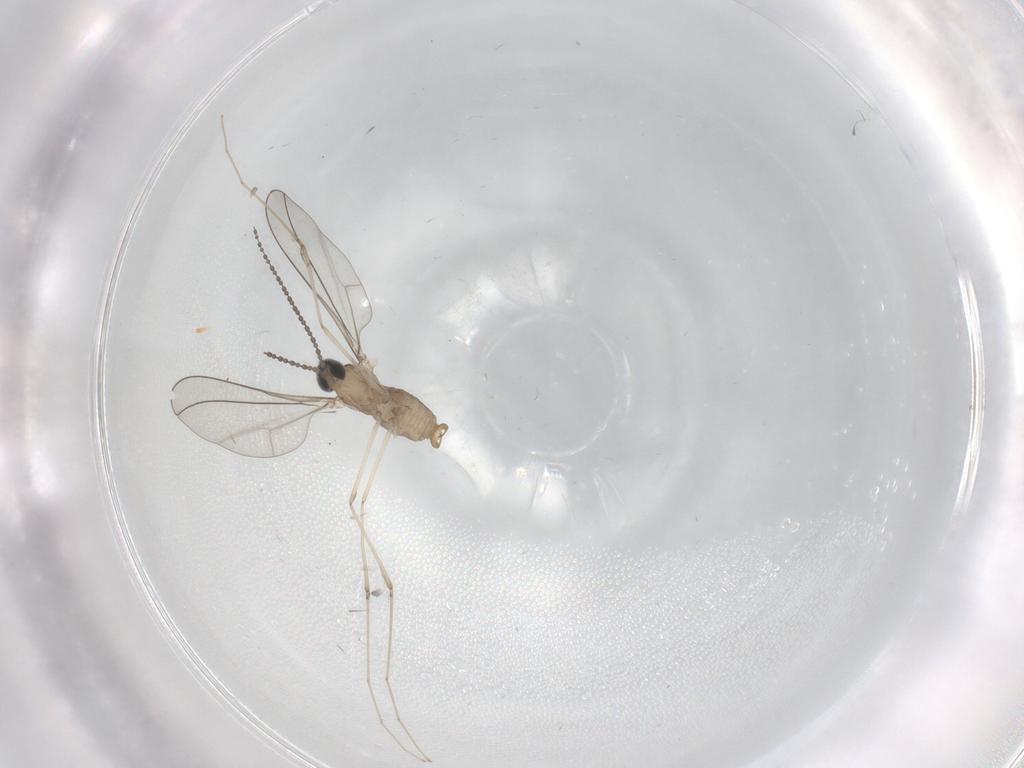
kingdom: Animalia
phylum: Arthropoda
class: Insecta
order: Diptera
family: Cecidomyiidae
